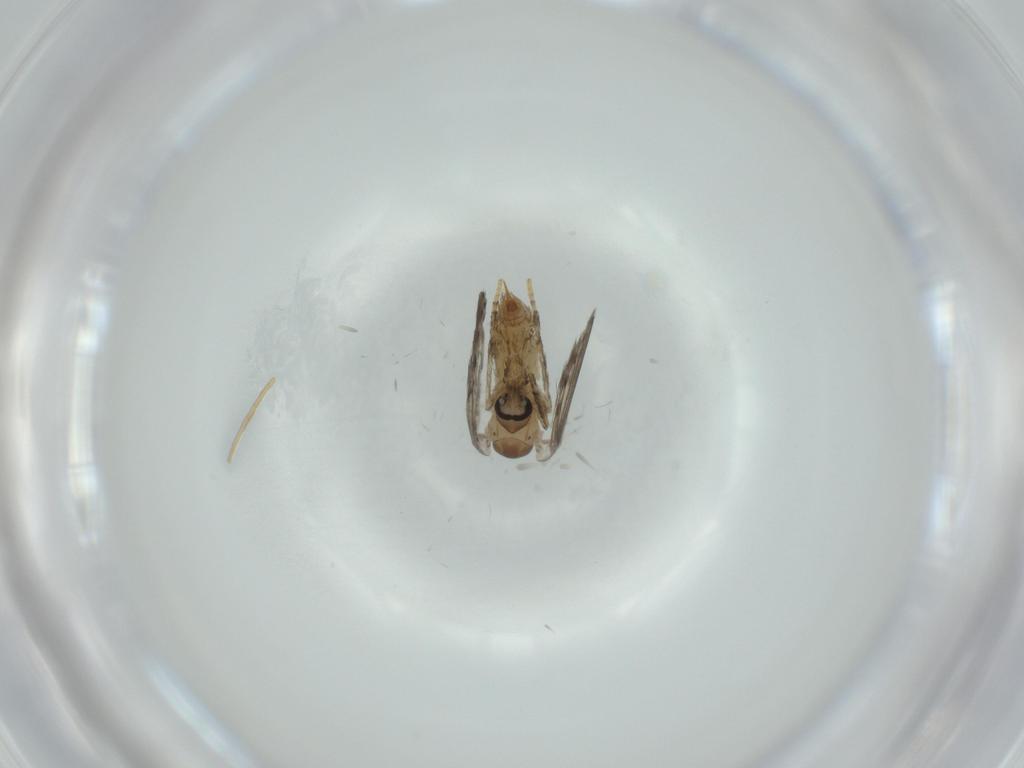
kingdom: Animalia
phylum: Arthropoda
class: Insecta
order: Diptera
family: Psychodidae
